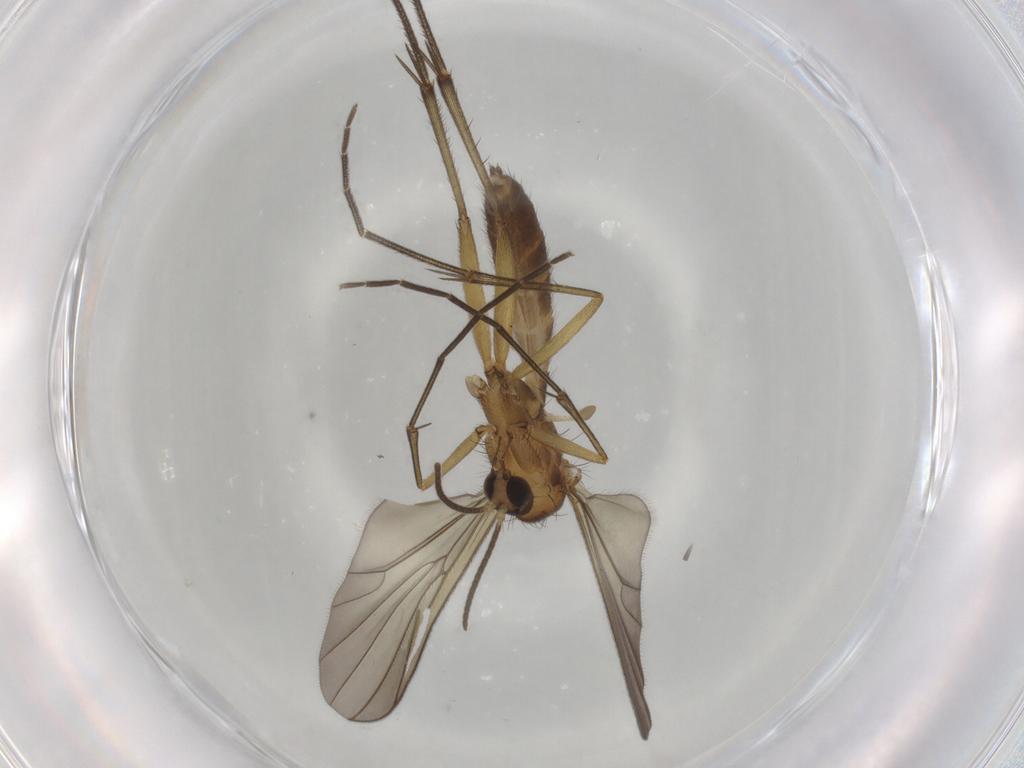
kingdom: Animalia
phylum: Arthropoda
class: Insecta
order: Diptera
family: Mycetophilidae
